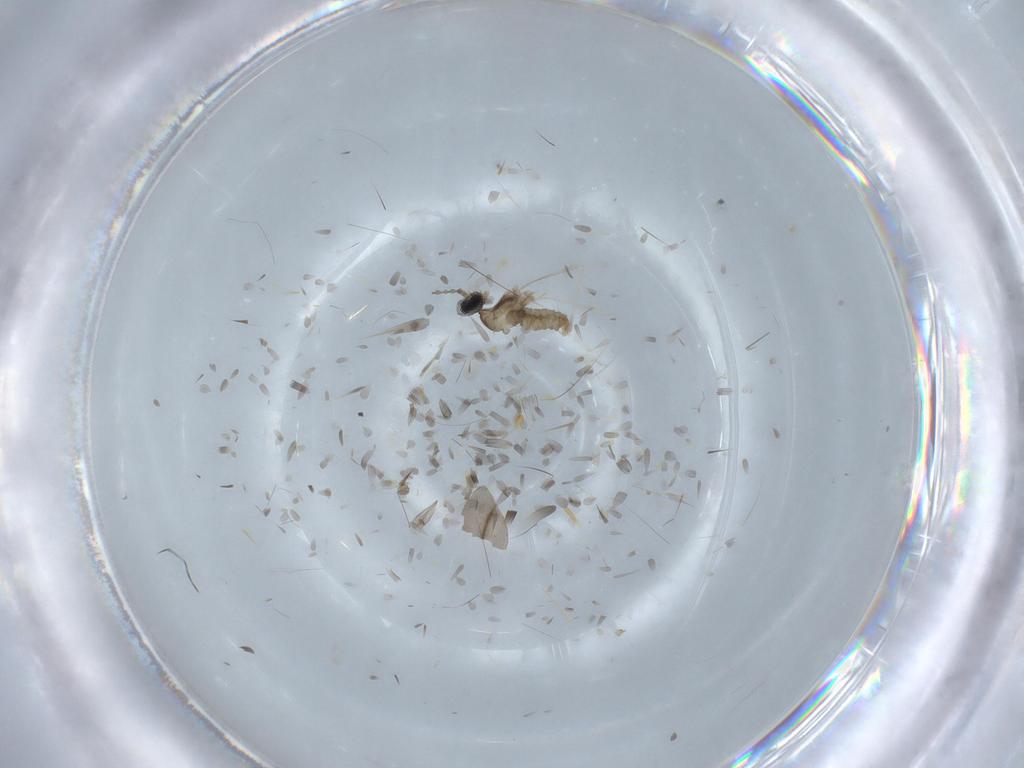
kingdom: Animalia
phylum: Arthropoda
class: Insecta
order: Diptera
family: Cecidomyiidae
